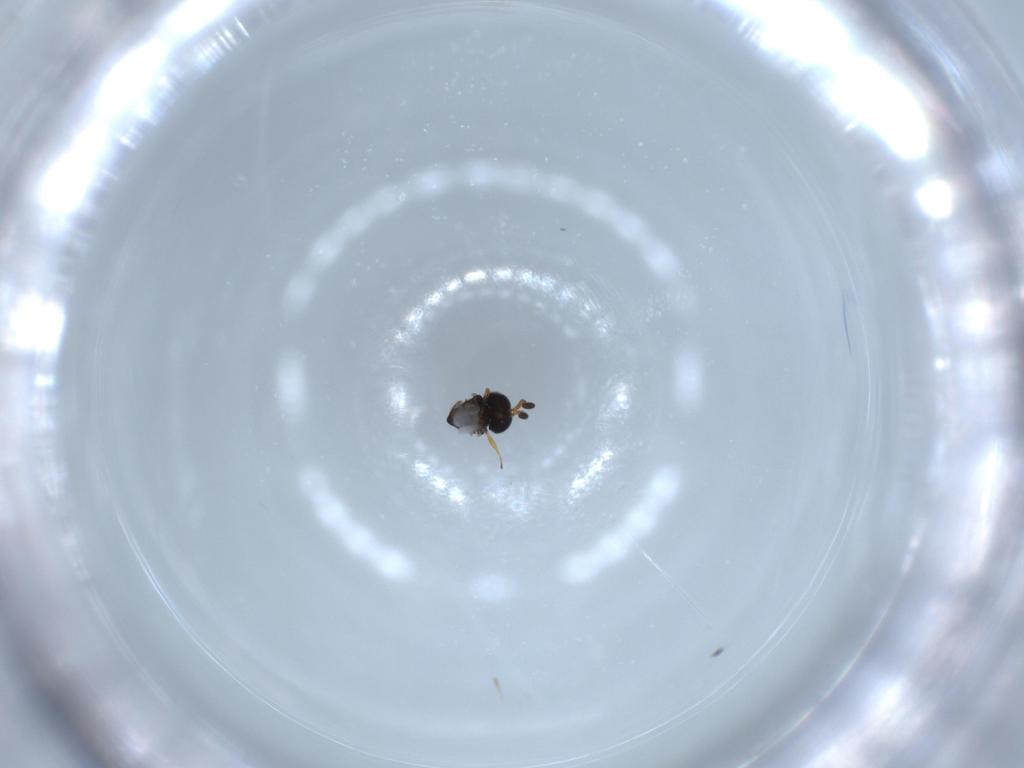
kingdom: Animalia
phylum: Arthropoda
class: Insecta
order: Hymenoptera
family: Scelionidae
